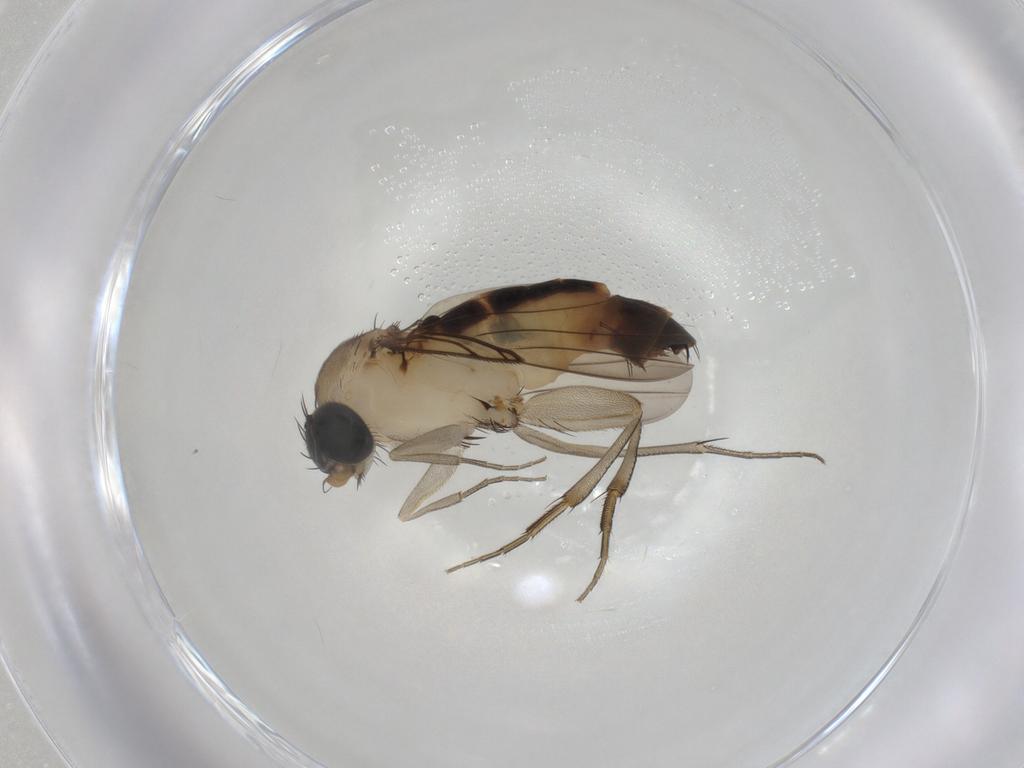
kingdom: Animalia
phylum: Arthropoda
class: Insecta
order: Diptera
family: Phoridae
